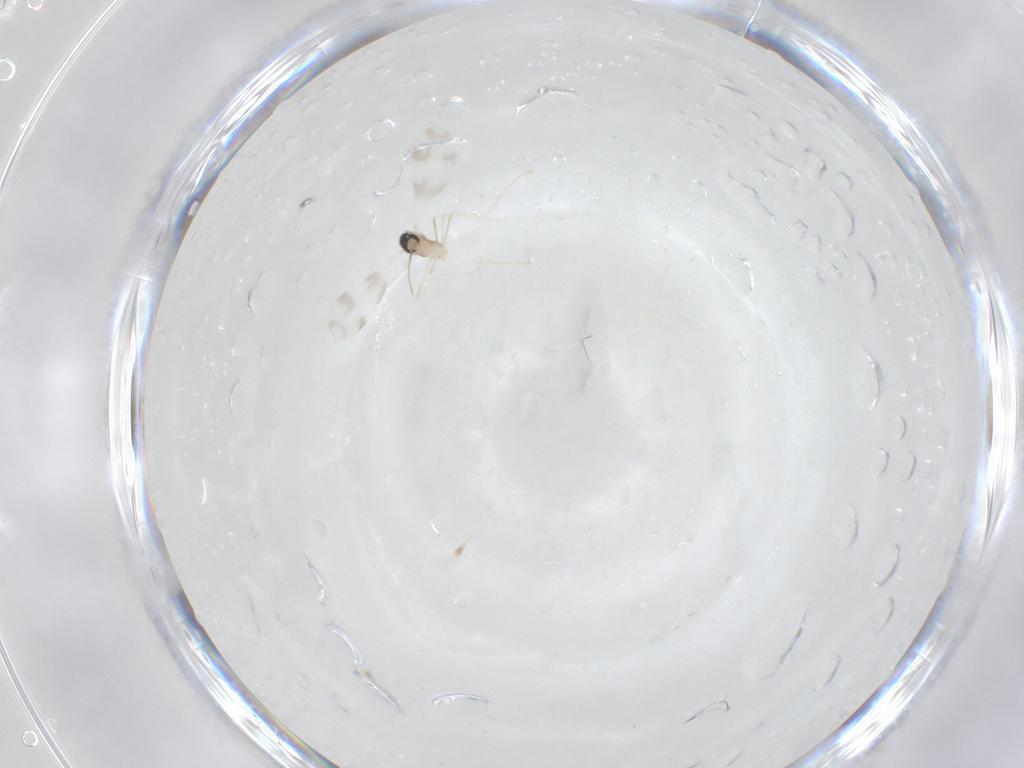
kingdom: Animalia
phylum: Arthropoda
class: Insecta
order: Diptera
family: Cecidomyiidae
